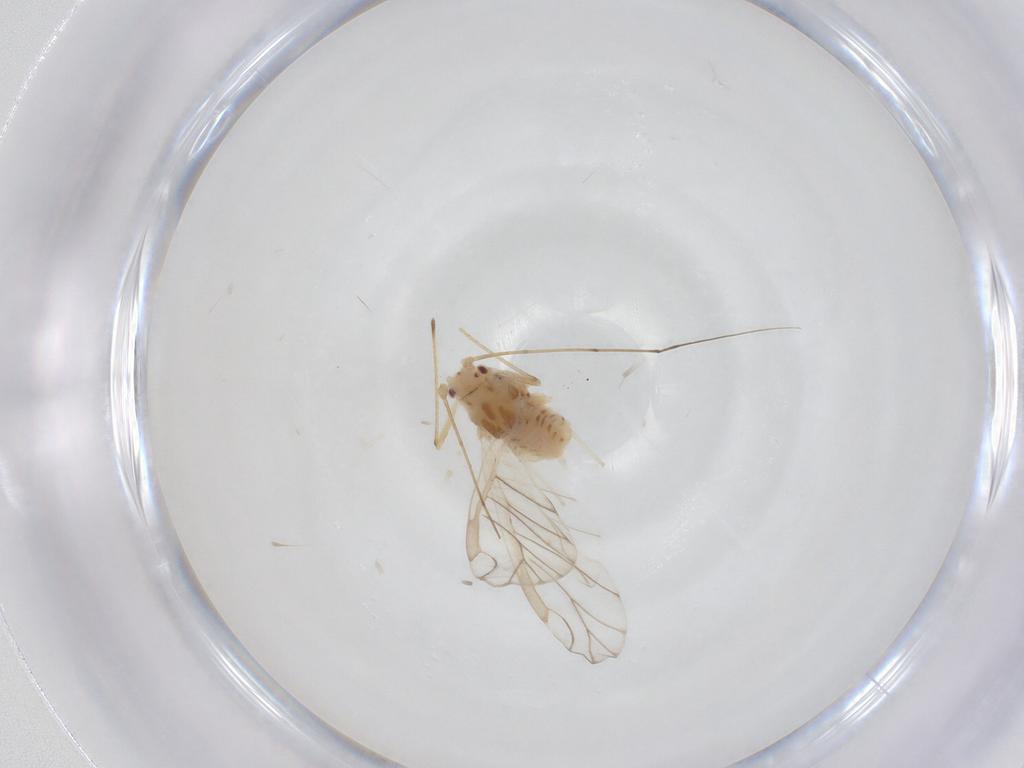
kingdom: Animalia
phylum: Arthropoda
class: Insecta
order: Hemiptera
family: Aphididae
